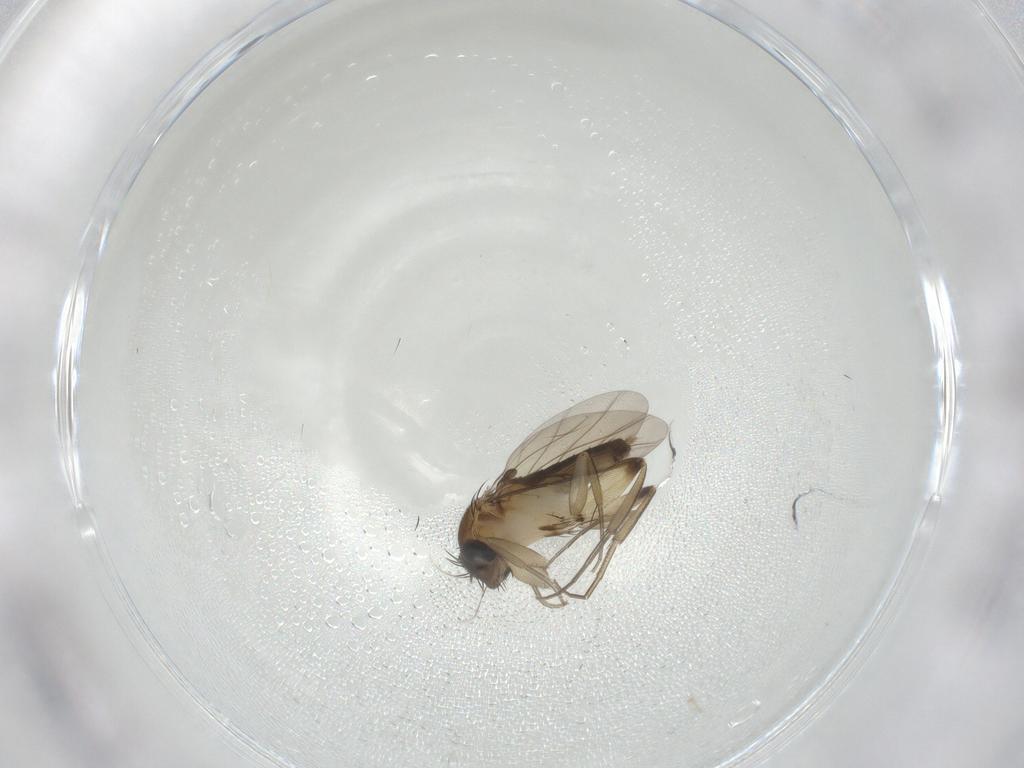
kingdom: Animalia
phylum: Arthropoda
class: Insecta
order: Diptera
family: Phoridae
